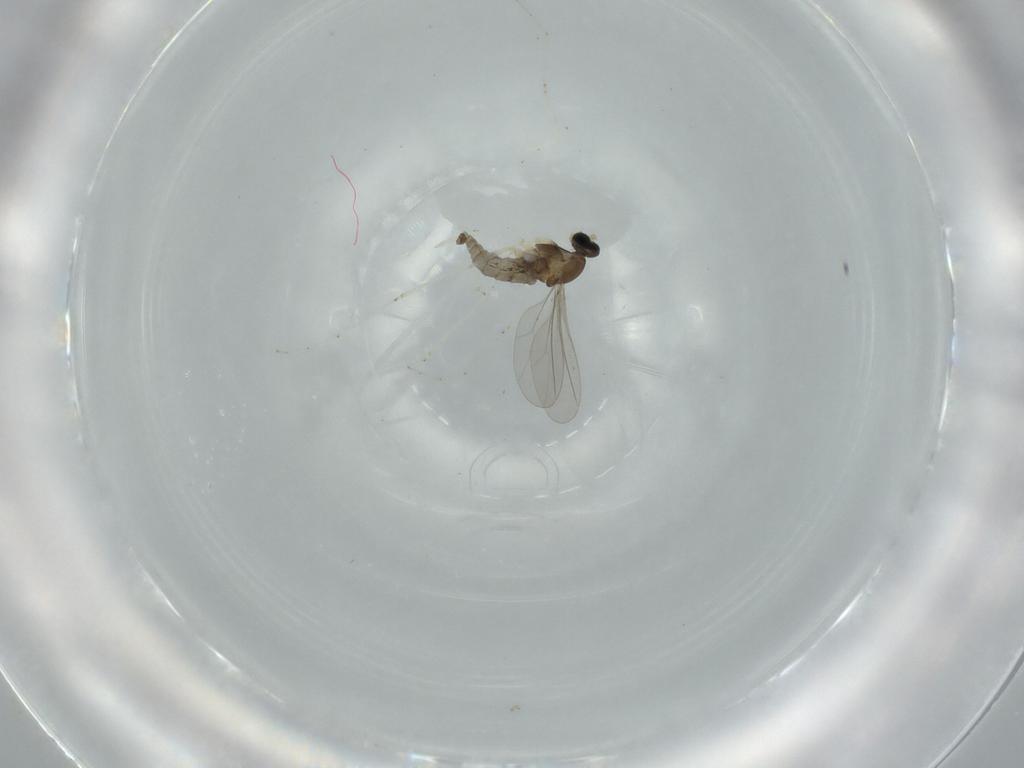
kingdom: Animalia
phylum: Arthropoda
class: Insecta
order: Diptera
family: Cecidomyiidae
